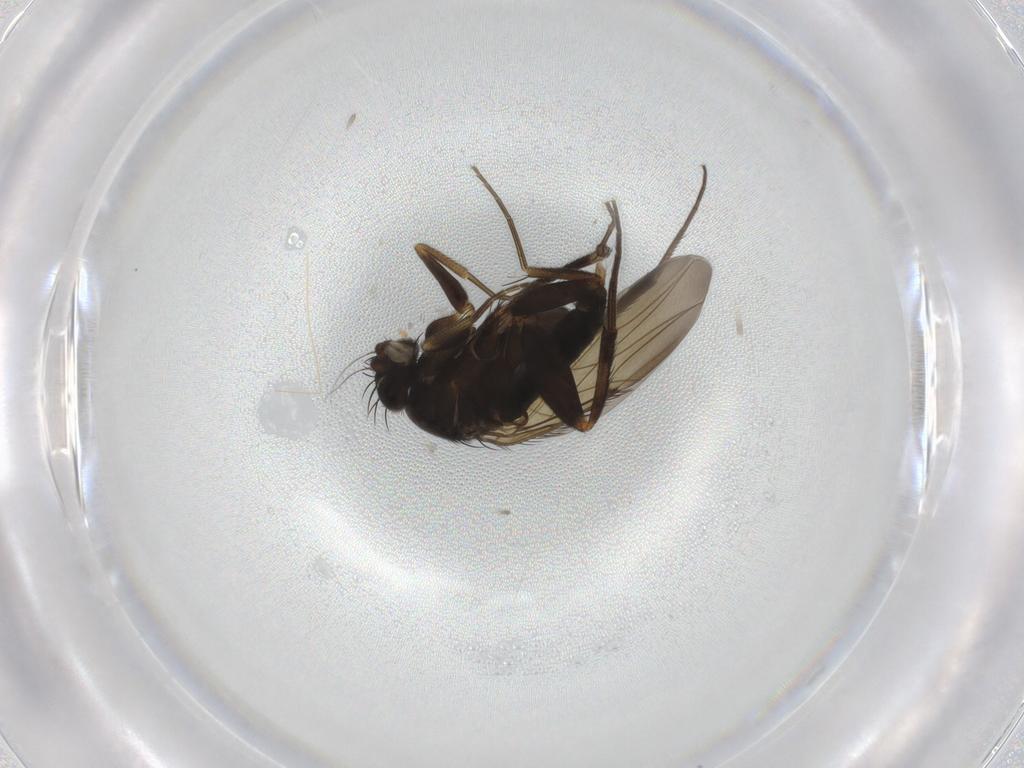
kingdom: Animalia
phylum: Arthropoda
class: Insecta
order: Diptera
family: Phoridae
